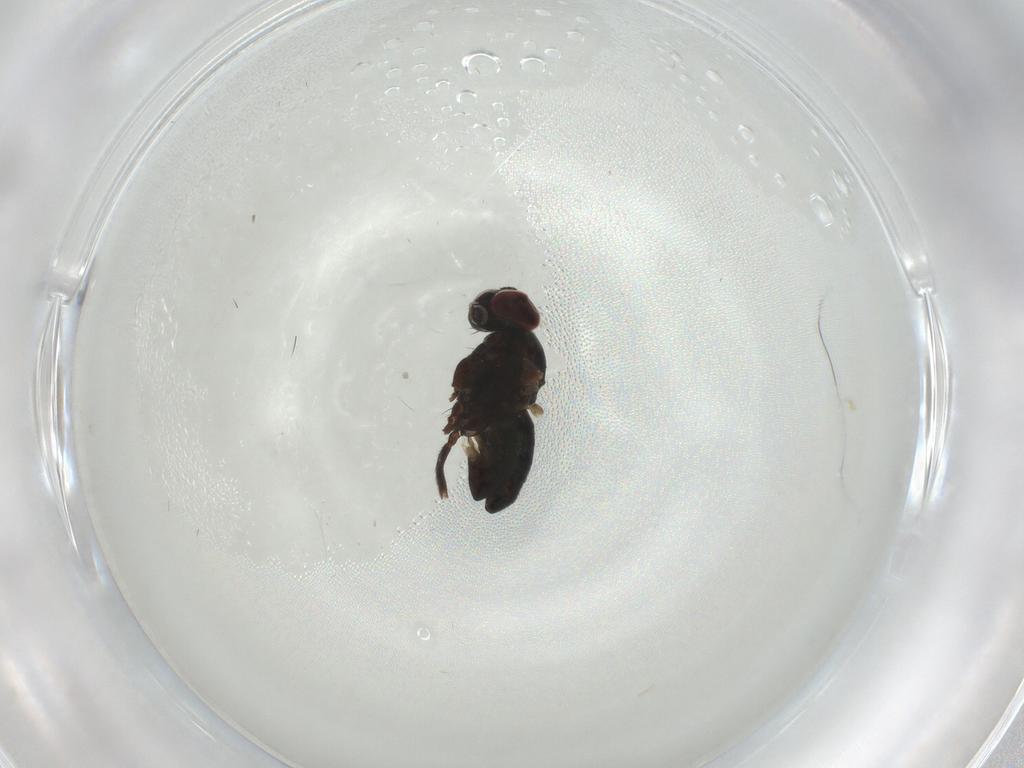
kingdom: Animalia
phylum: Arthropoda
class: Insecta
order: Diptera
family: Dolichopodidae
